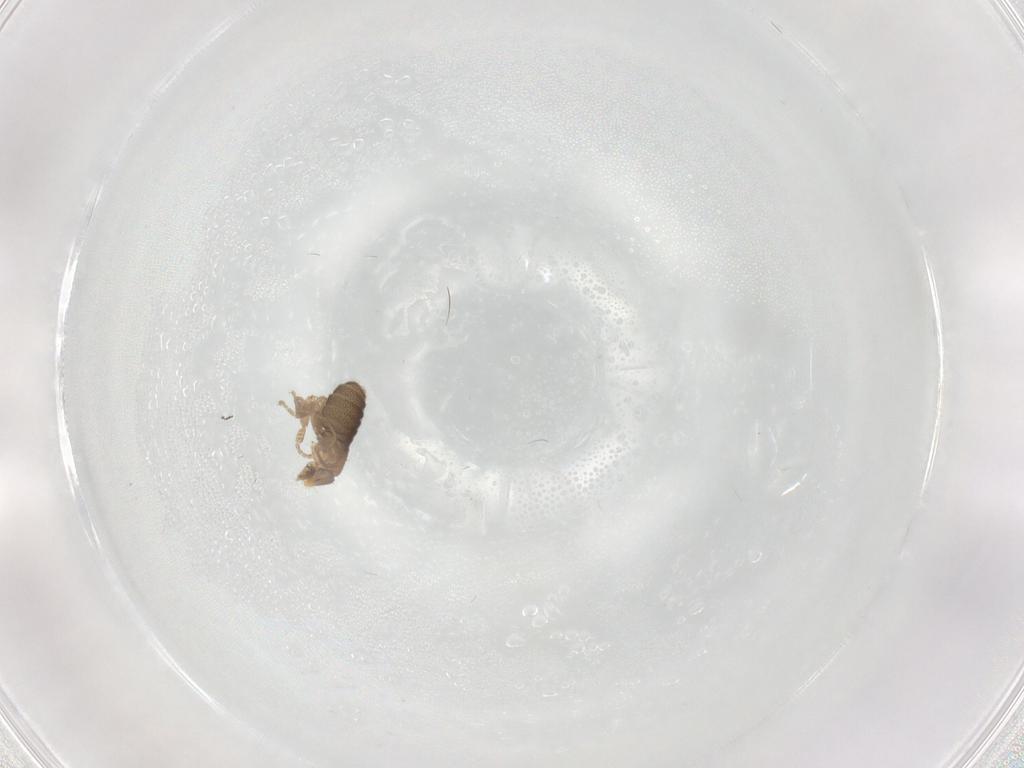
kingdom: Animalia
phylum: Arthropoda
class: Insecta
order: Diptera
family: Chironomidae
